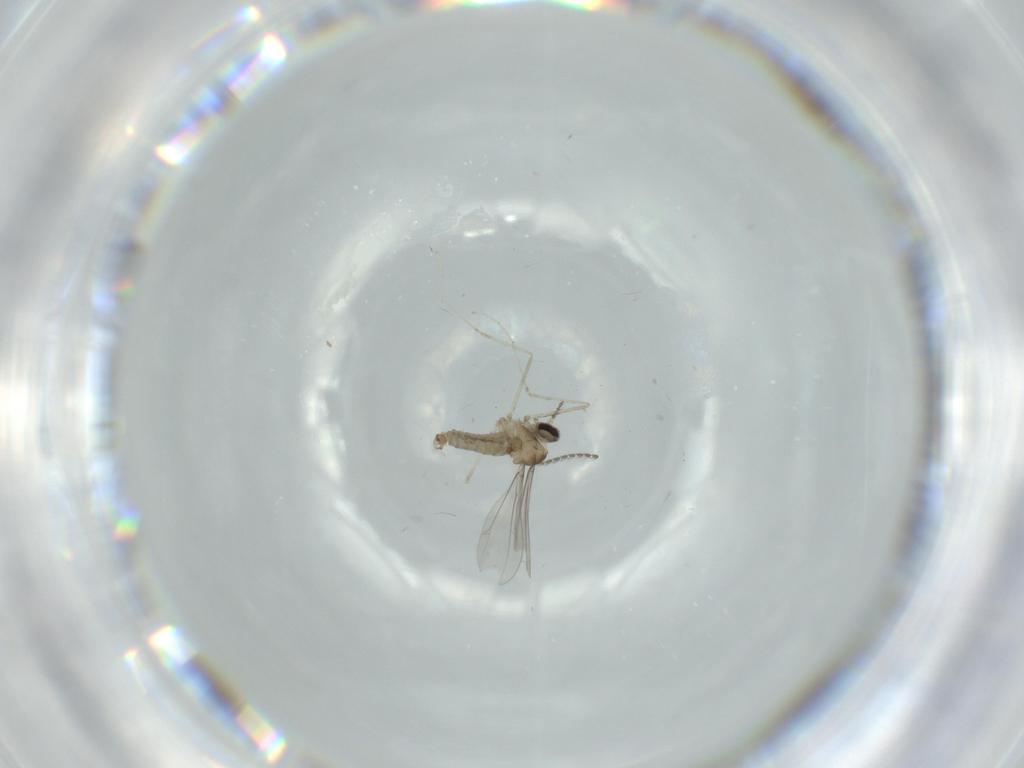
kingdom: Animalia
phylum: Arthropoda
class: Insecta
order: Diptera
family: Cecidomyiidae
